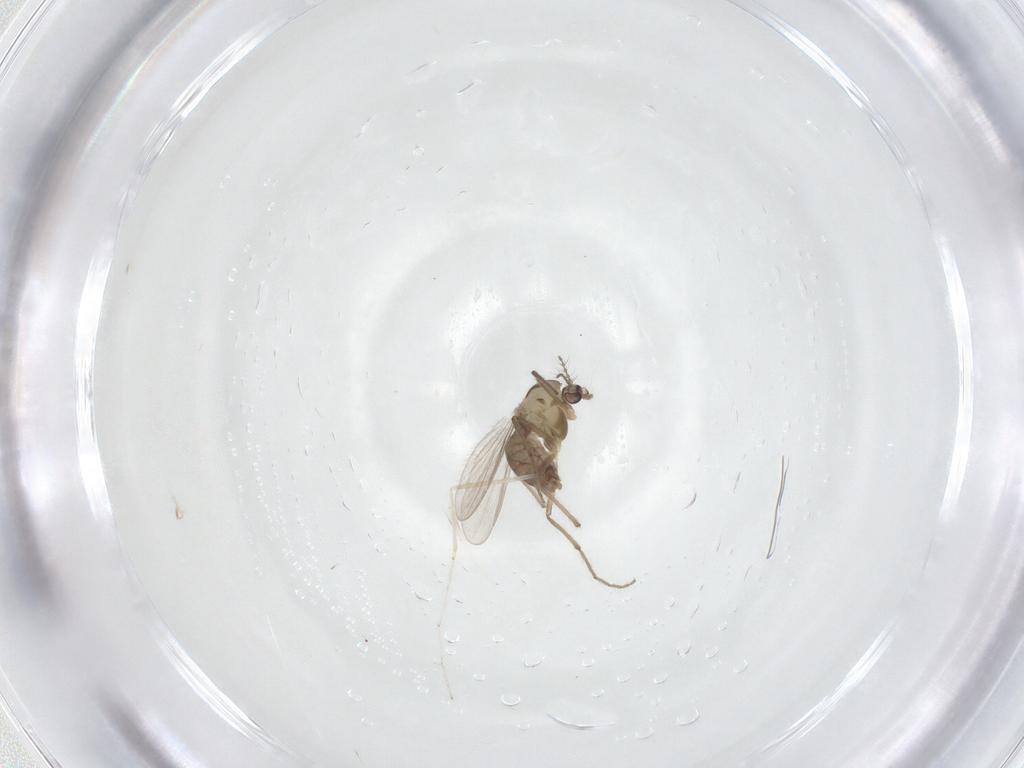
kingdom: Animalia
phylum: Arthropoda
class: Insecta
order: Diptera
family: Chironomidae
